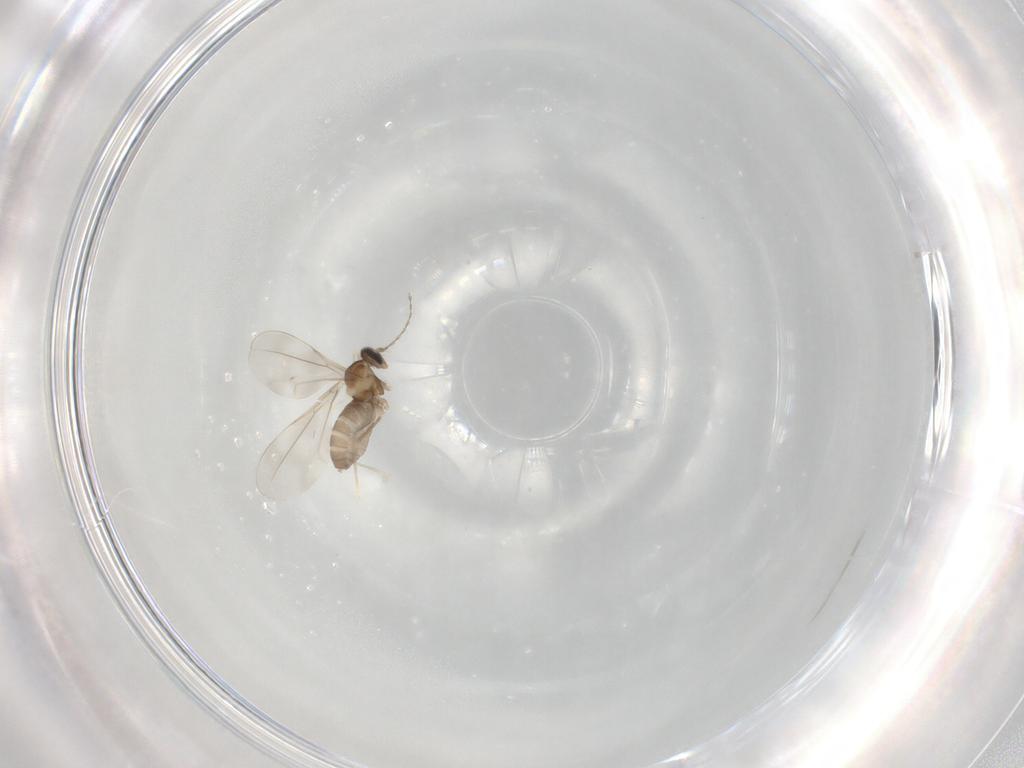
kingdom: Animalia
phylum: Arthropoda
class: Insecta
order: Diptera
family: Cecidomyiidae
